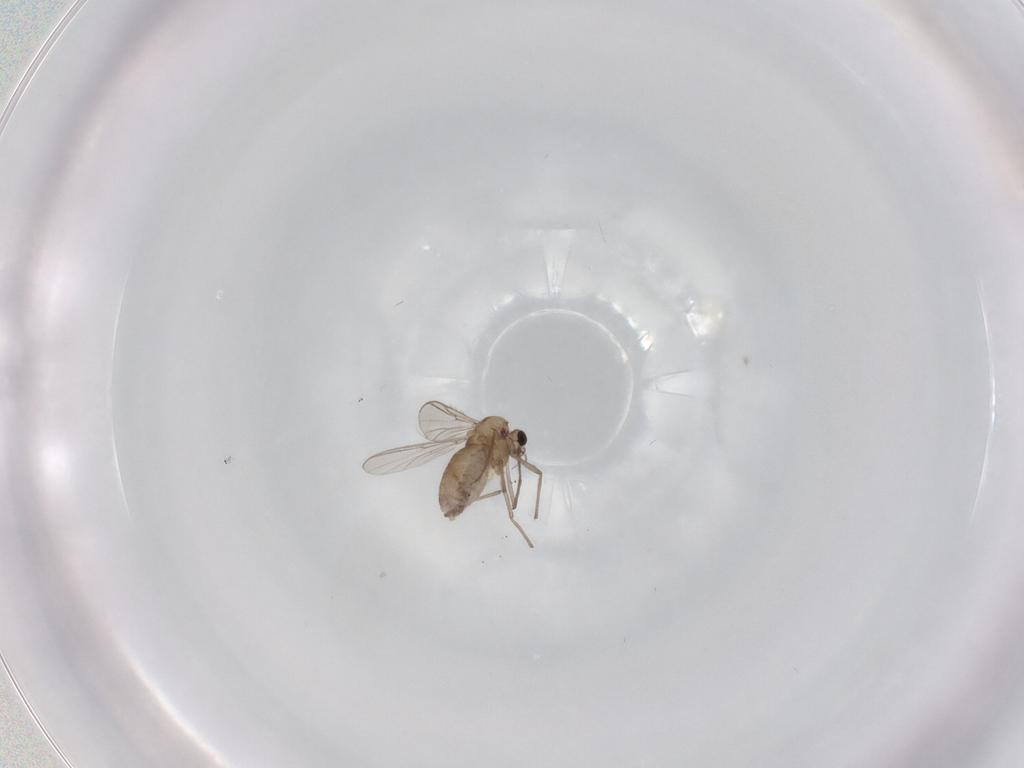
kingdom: Animalia
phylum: Arthropoda
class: Insecta
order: Diptera
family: Chironomidae
